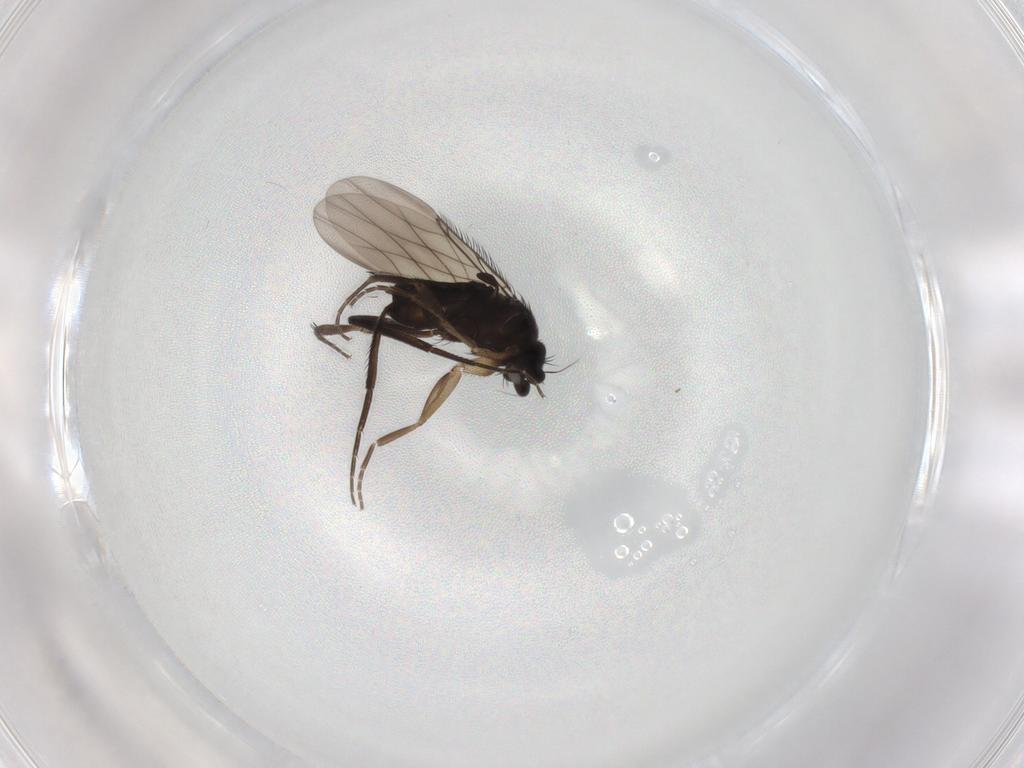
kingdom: Animalia
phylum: Arthropoda
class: Insecta
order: Diptera
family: Phoridae
